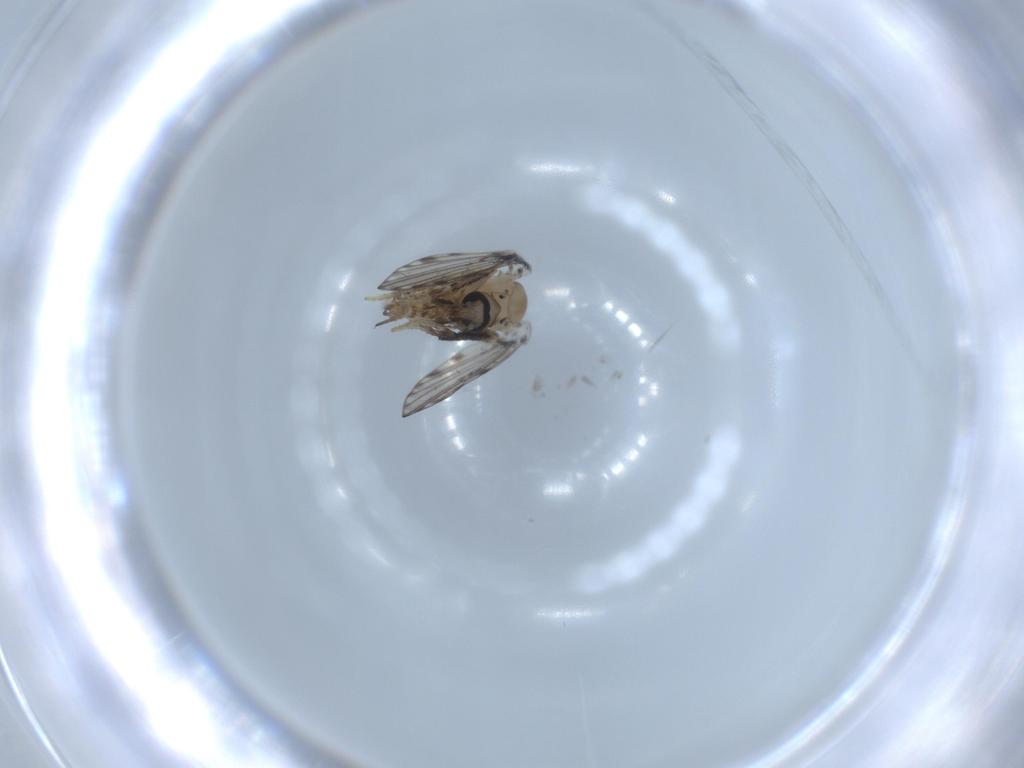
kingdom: Animalia
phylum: Arthropoda
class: Insecta
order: Diptera
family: Psychodidae
